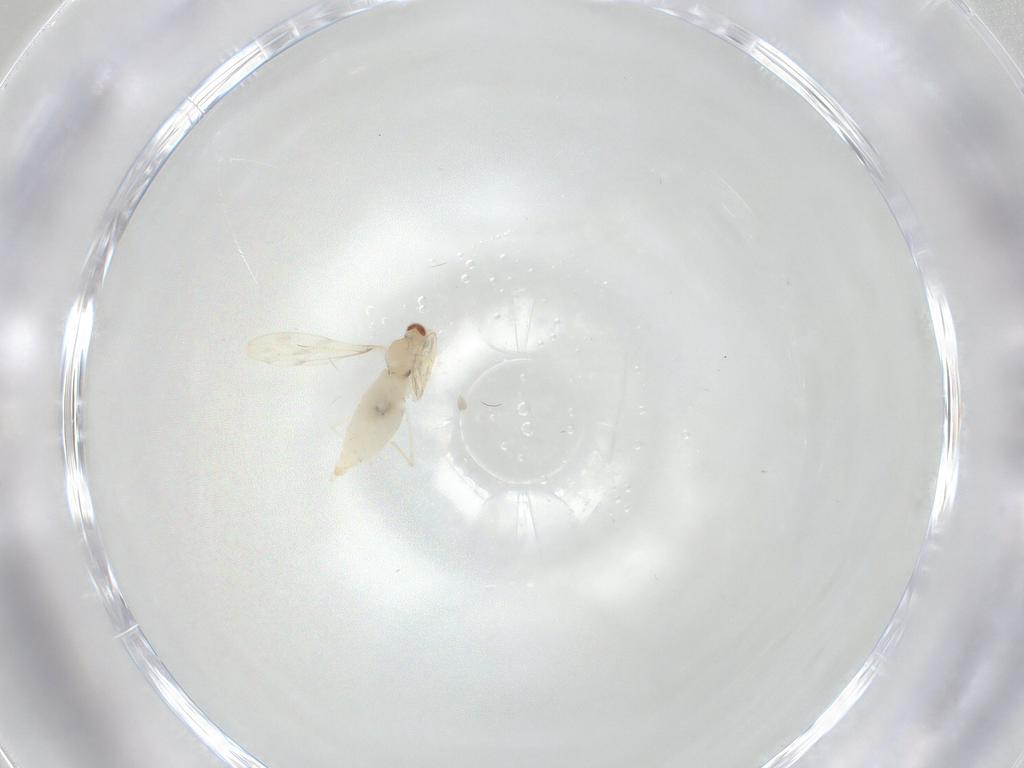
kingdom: Animalia
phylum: Arthropoda
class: Insecta
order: Diptera
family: Cecidomyiidae
